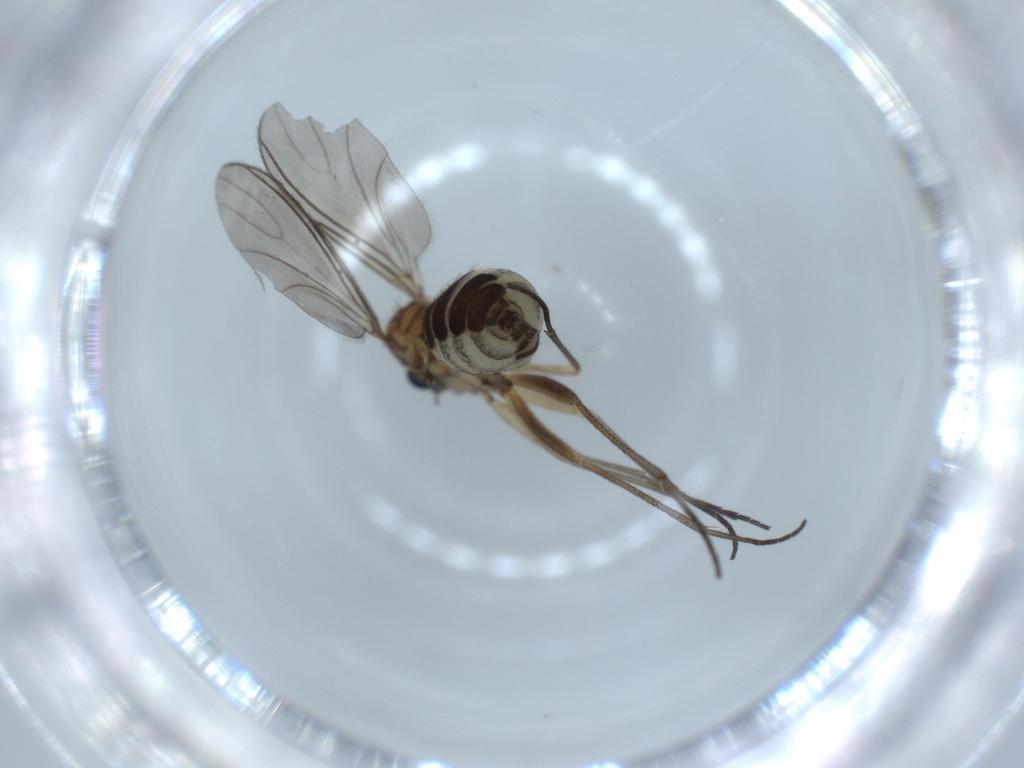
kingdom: Animalia
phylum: Arthropoda
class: Insecta
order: Diptera
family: Sciaridae
